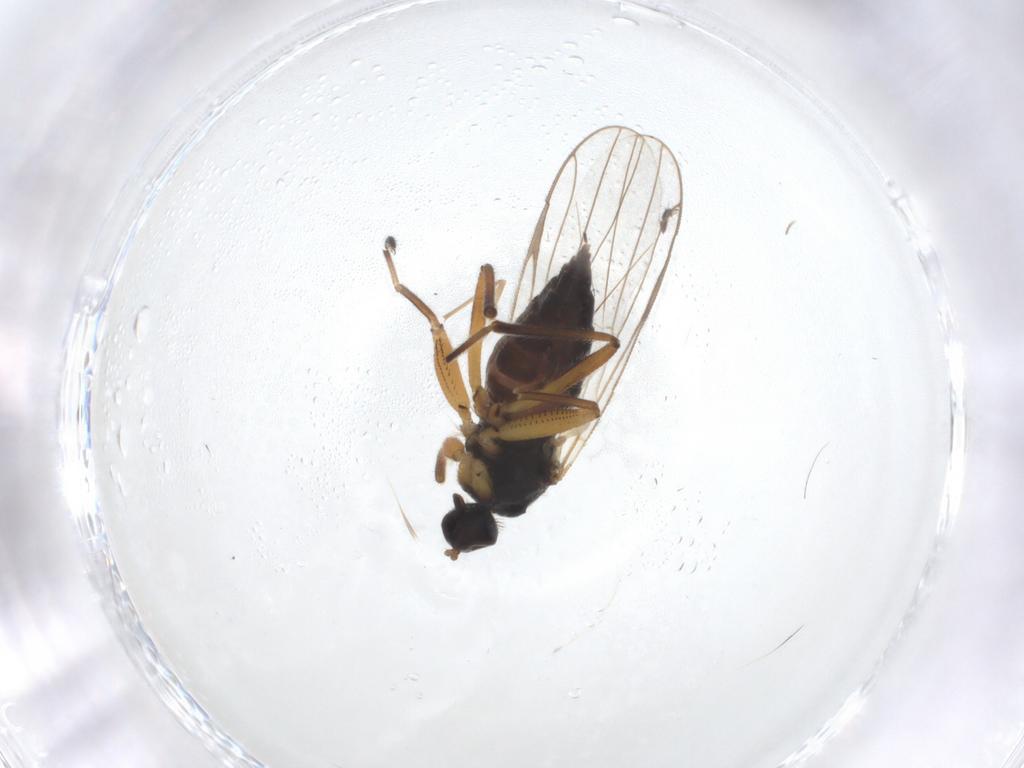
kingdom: Animalia
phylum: Arthropoda
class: Insecta
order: Diptera
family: Hybotidae
